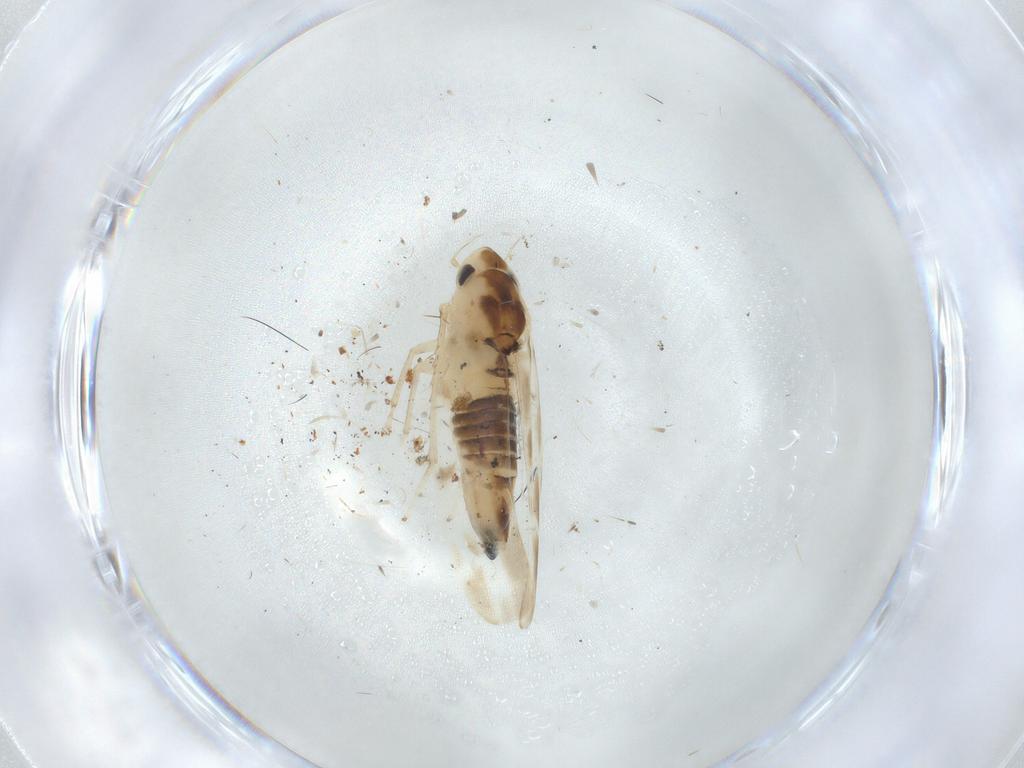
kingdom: Animalia
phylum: Arthropoda
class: Insecta
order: Hemiptera
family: Cicadellidae
